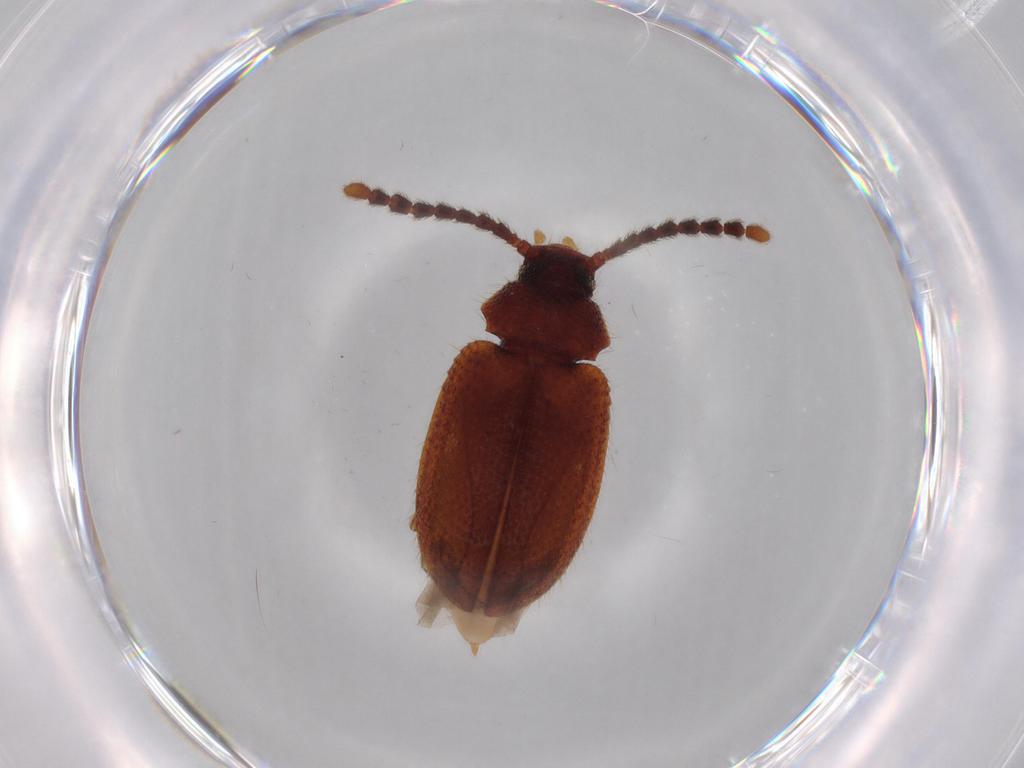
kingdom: Animalia
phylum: Arthropoda
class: Insecta
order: Coleoptera
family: Tenebrionidae
